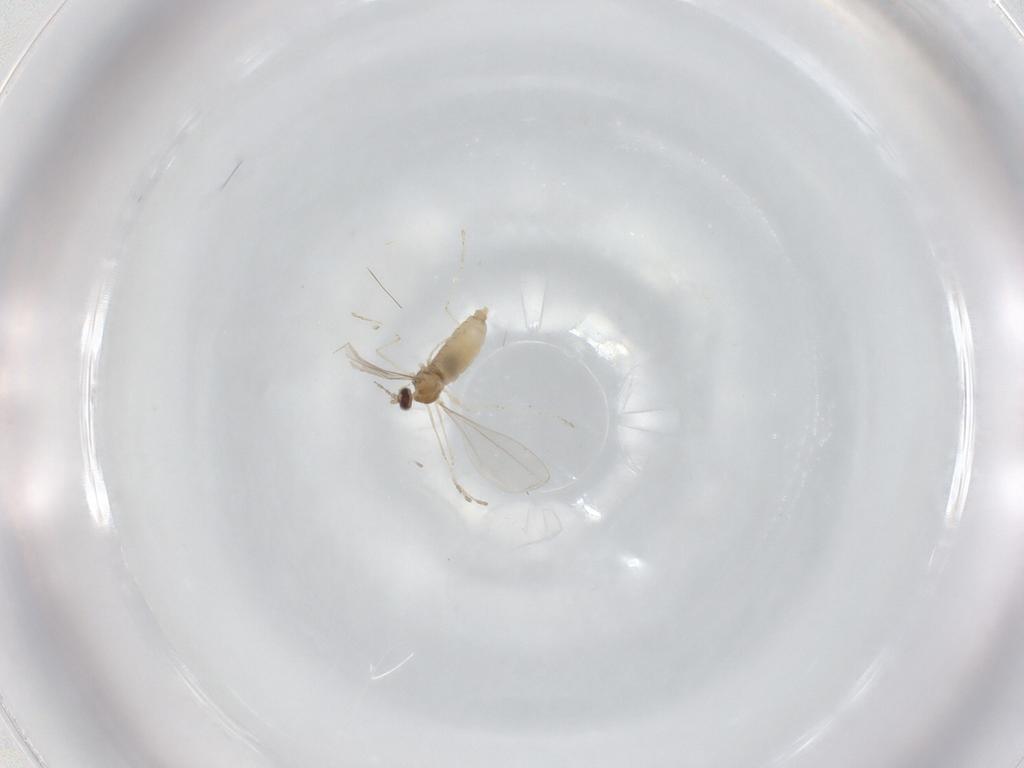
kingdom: Animalia
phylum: Arthropoda
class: Insecta
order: Diptera
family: Cecidomyiidae
